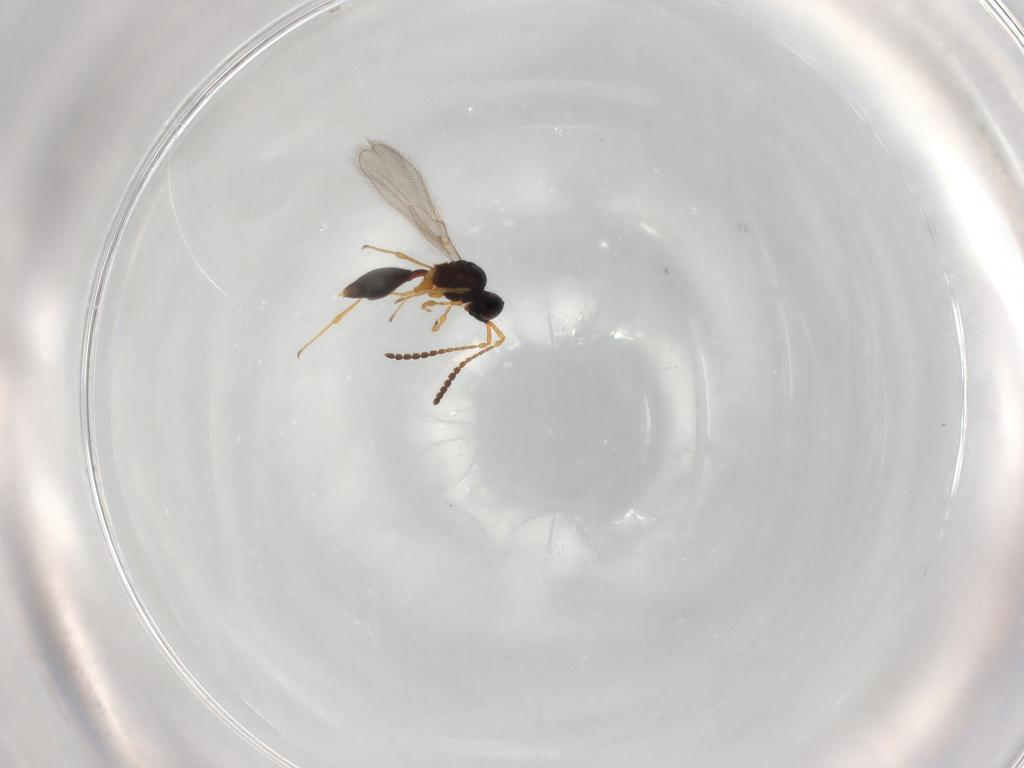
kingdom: Animalia
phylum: Arthropoda
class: Insecta
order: Hymenoptera
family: Diapriidae
